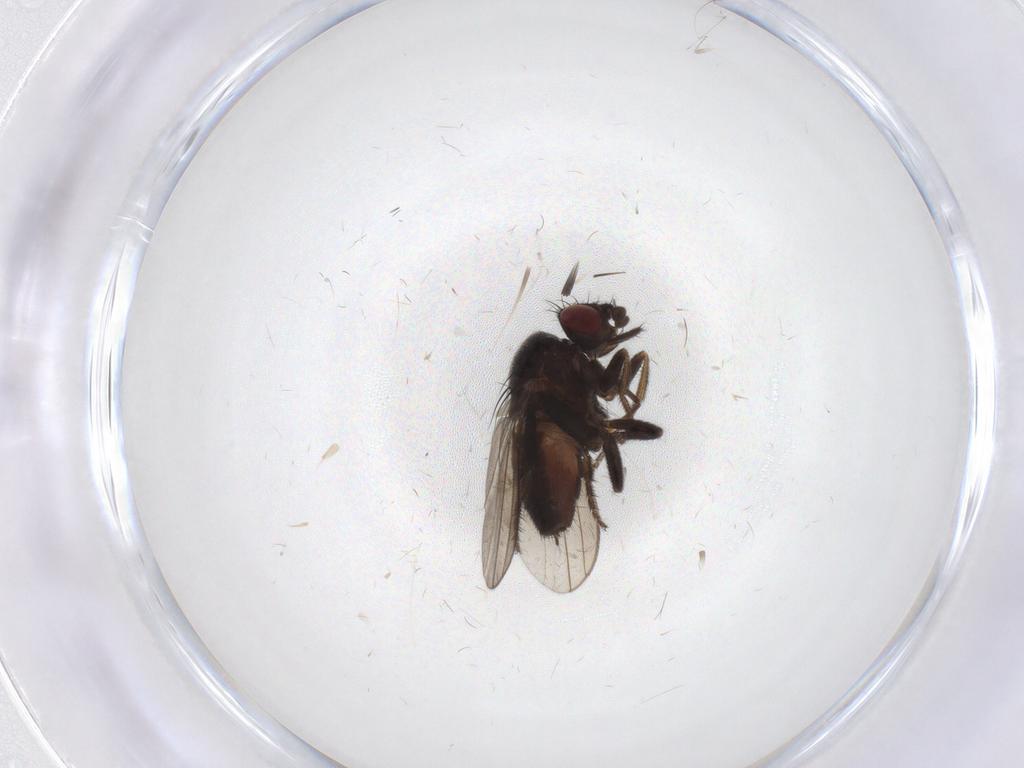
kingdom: Animalia
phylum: Arthropoda
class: Insecta
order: Diptera
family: Milichiidae
